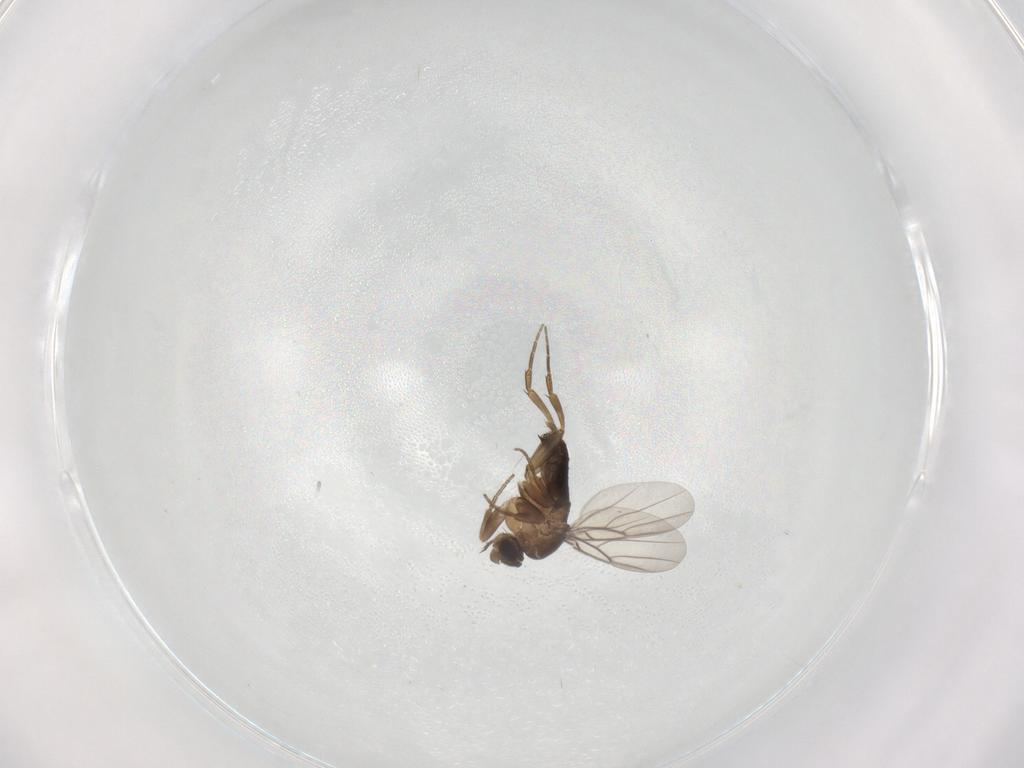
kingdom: Animalia
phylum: Arthropoda
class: Insecta
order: Diptera
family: Phoridae
